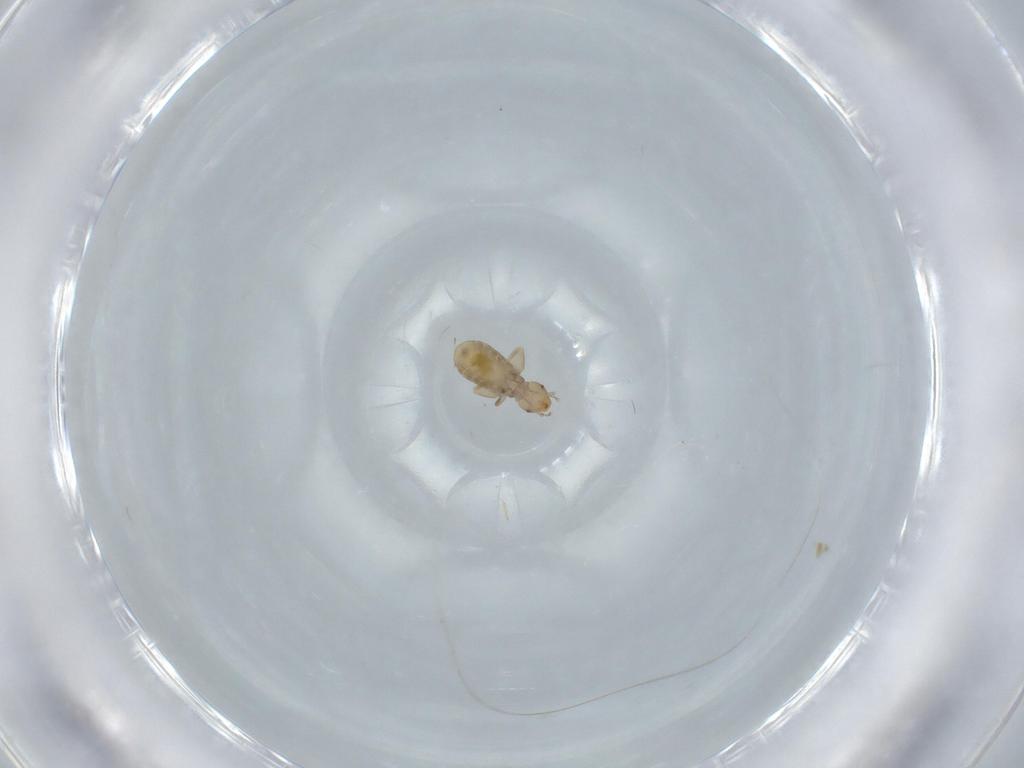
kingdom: Animalia
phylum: Arthropoda
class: Insecta
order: Psocodea
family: Liposcelididae
